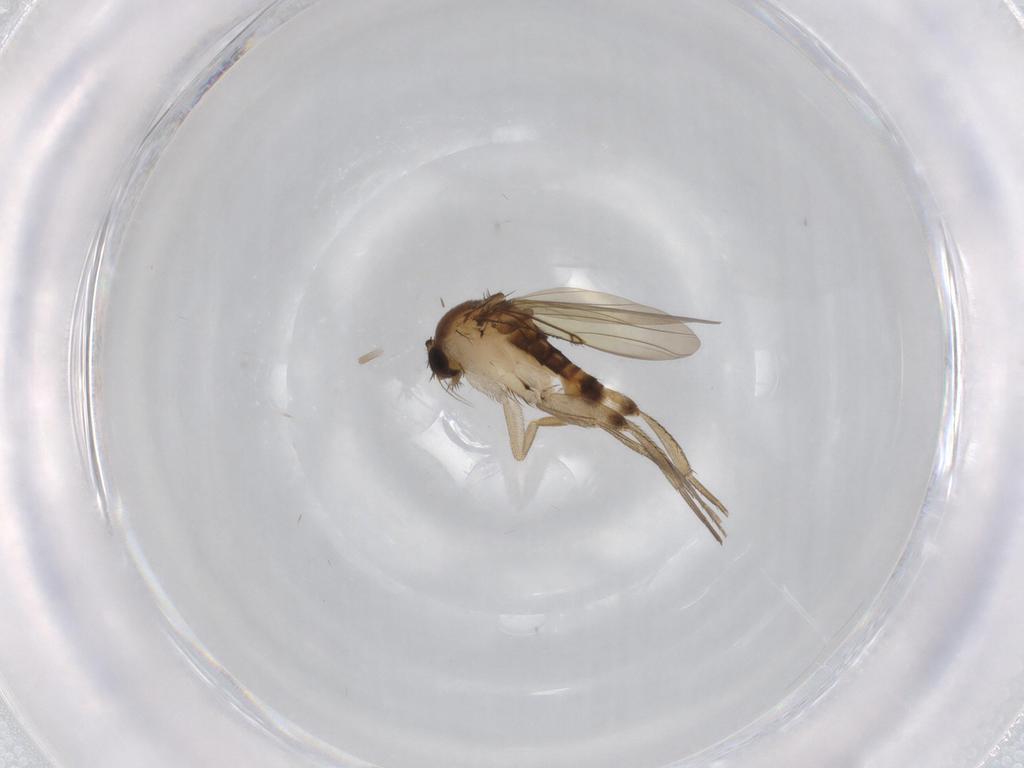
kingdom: Animalia
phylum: Arthropoda
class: Insecta
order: Diptera
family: Phoridae
